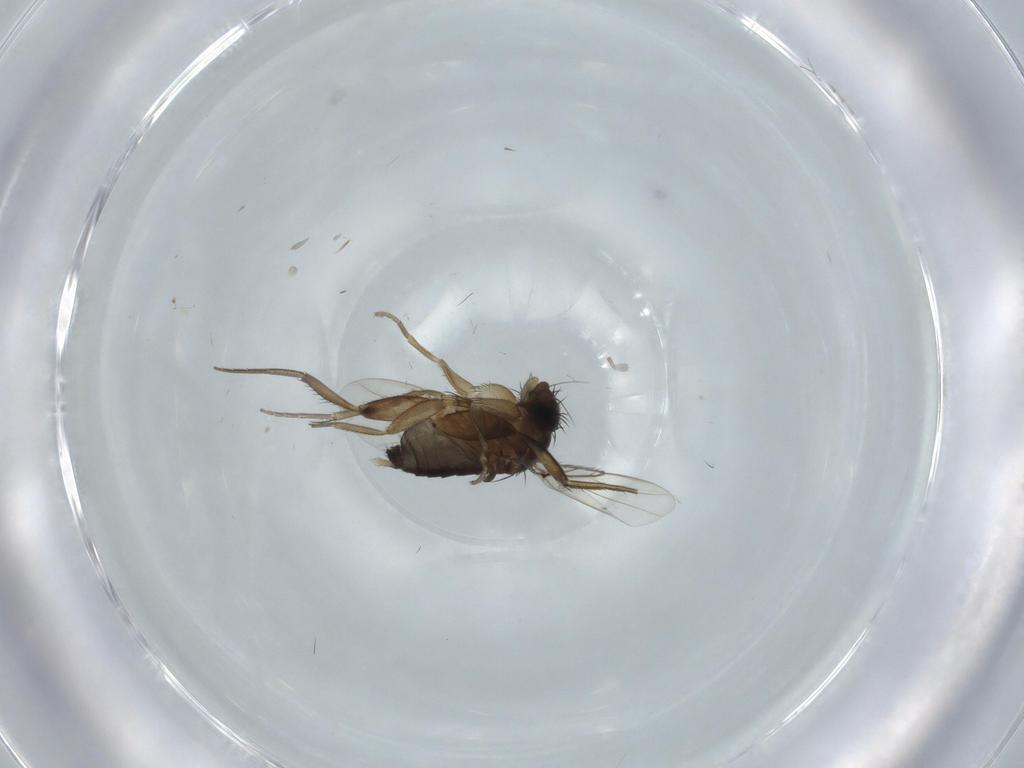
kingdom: Animalia
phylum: Arthropoda
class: Insecta
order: Diptera
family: Phoridae
